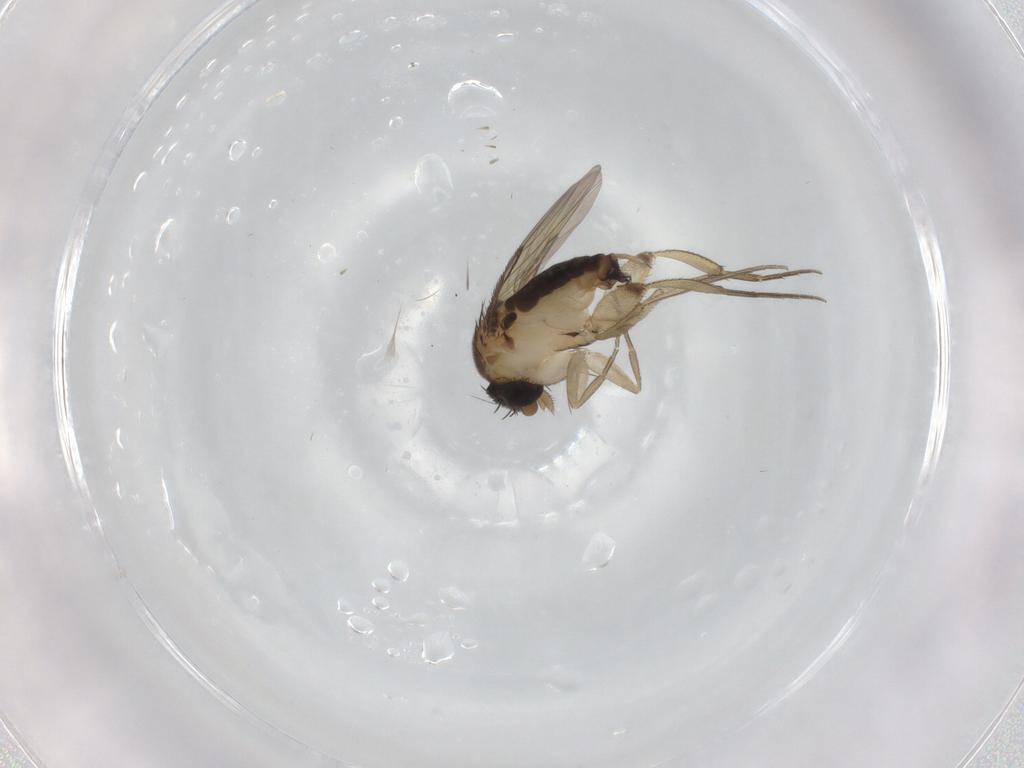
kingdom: Animalia
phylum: Arthropoda
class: Insecta
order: Diptera
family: Phoridae
